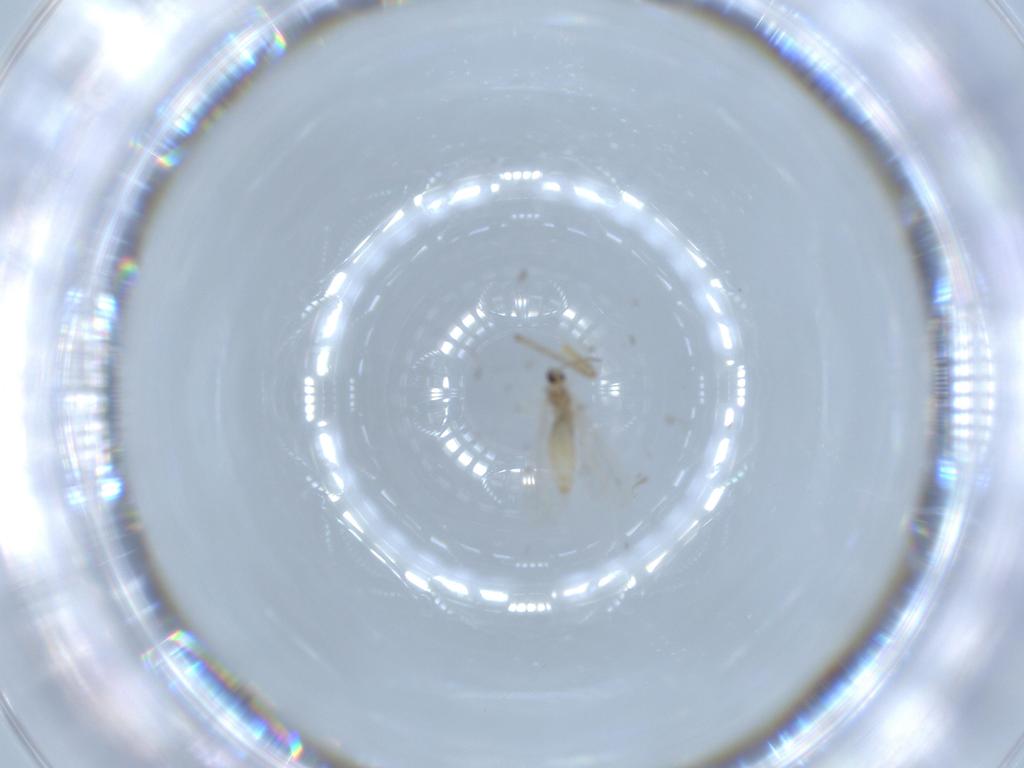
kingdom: Animalia
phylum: Arthropoda
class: Insecta
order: Diptera
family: Cecidomyiidae
